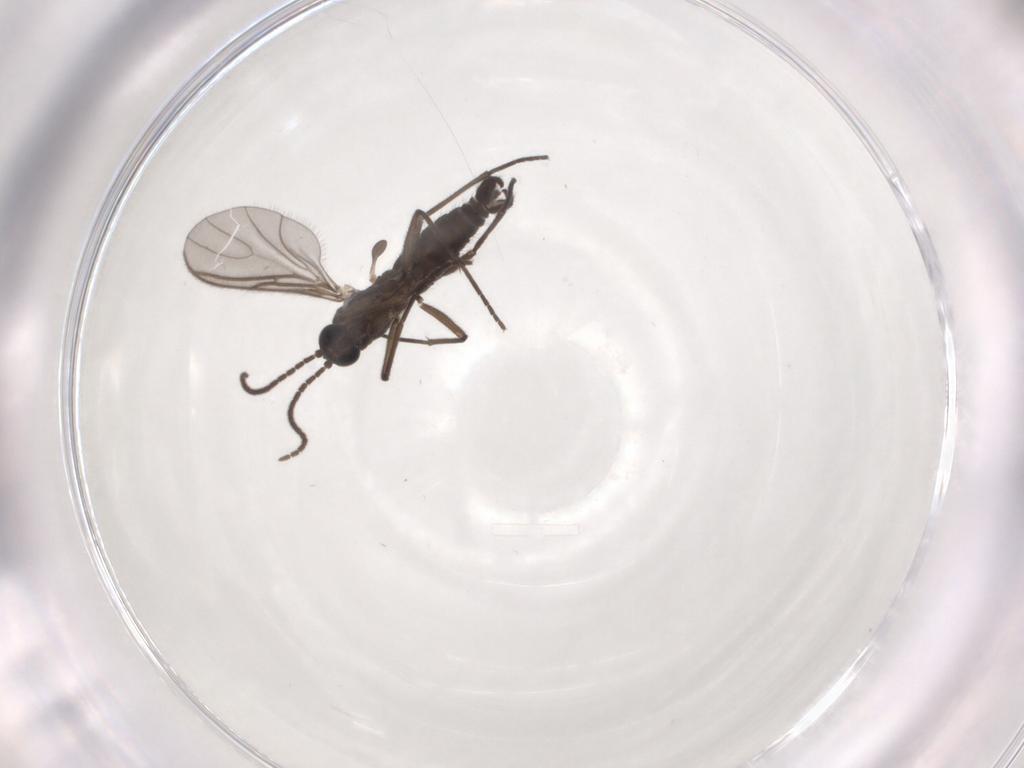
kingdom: Animalia
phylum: Arthropoda
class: Insecta
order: Diptera
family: Sciaridae
